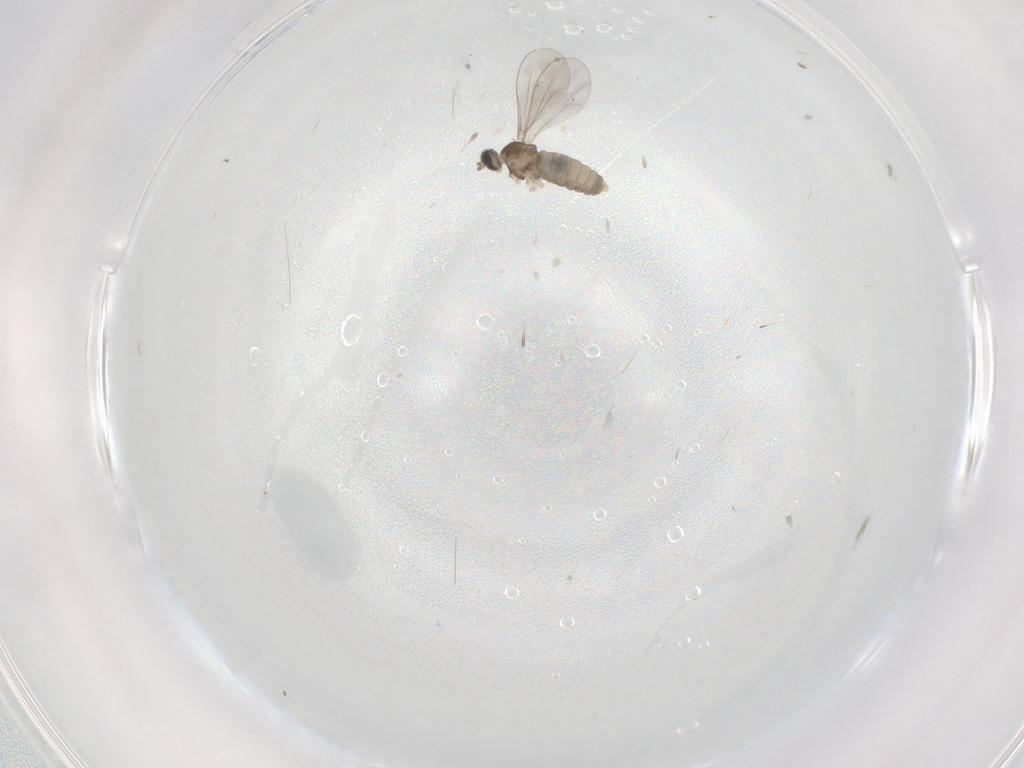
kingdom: Animalia
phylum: Arthropoda
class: Insecta
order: Diptera
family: Cecidomyiidae
